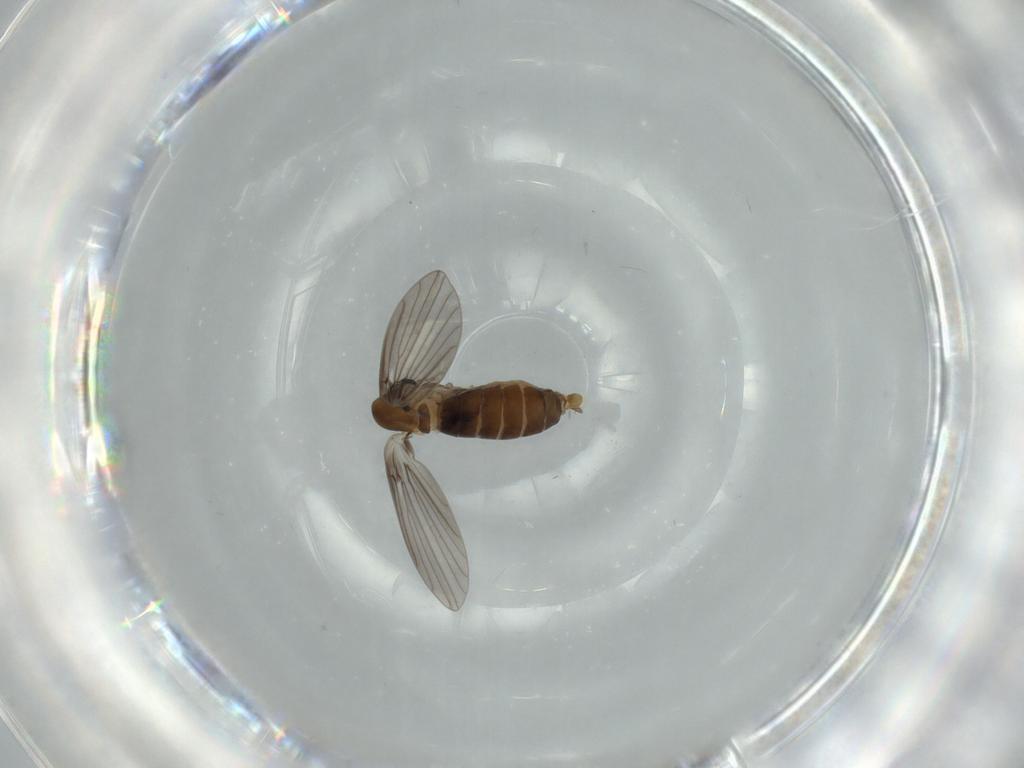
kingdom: Animalia
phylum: Arthropoda
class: Insecta
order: Diptera
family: Psychodidae
